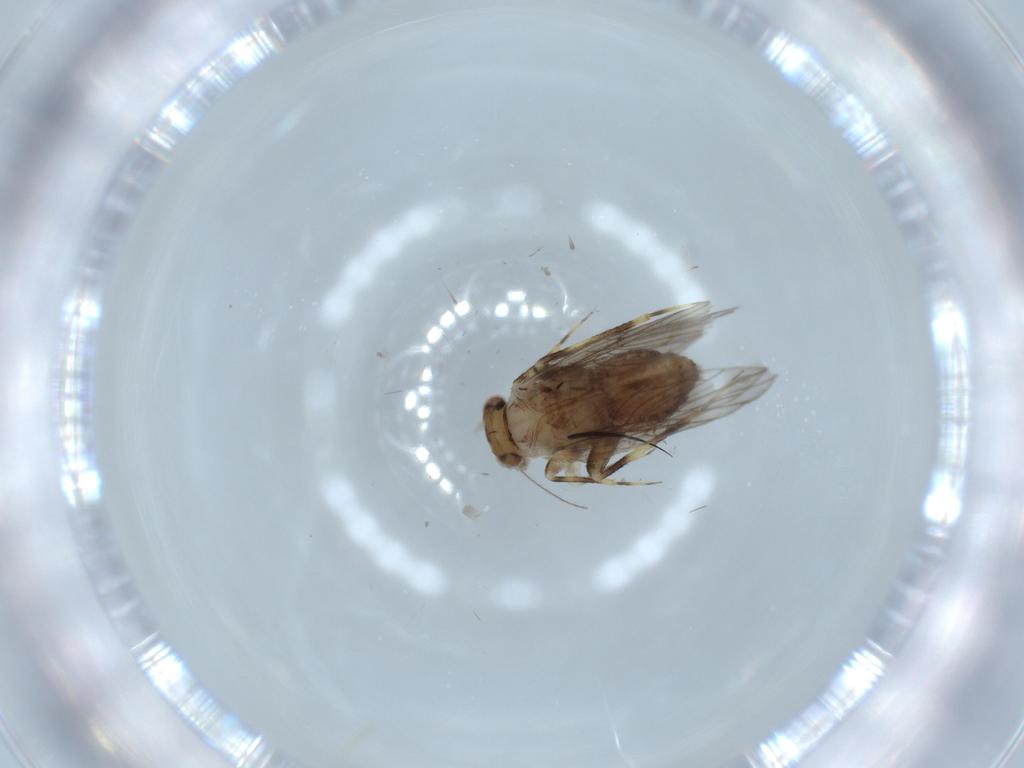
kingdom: Animalia
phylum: Arthropoda
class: Insecta
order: Psocodea
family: Lepidopsocidae
